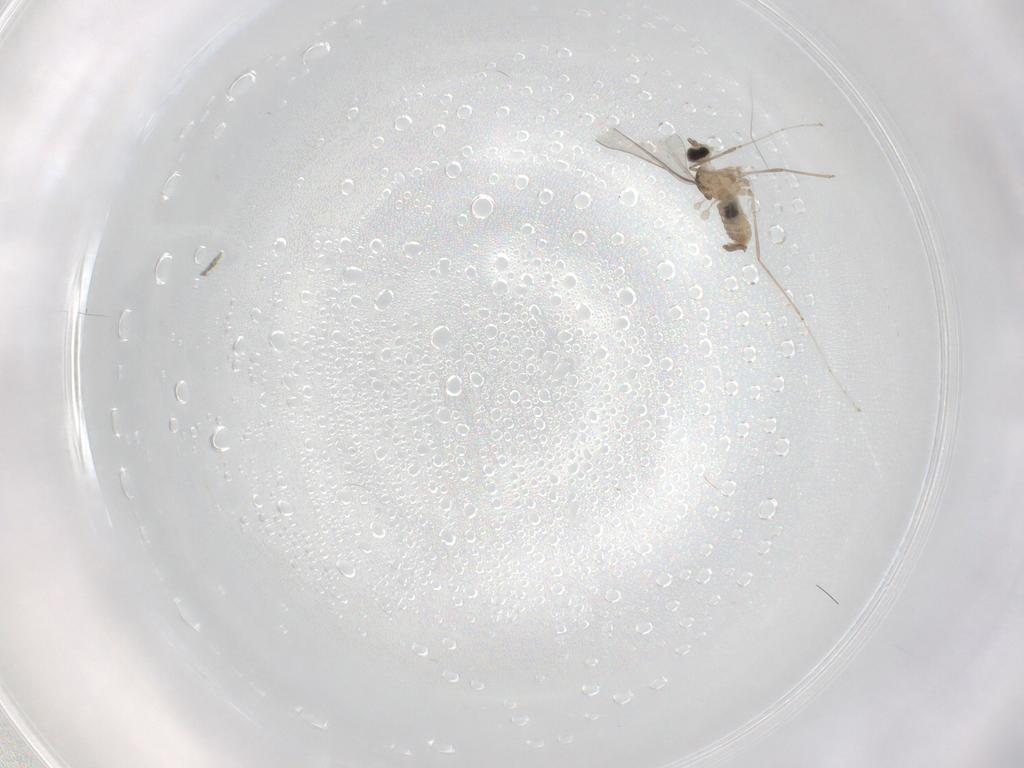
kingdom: Animalia
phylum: Arthropoda
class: Insecta
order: Diptera
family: Cecidomyiidae
